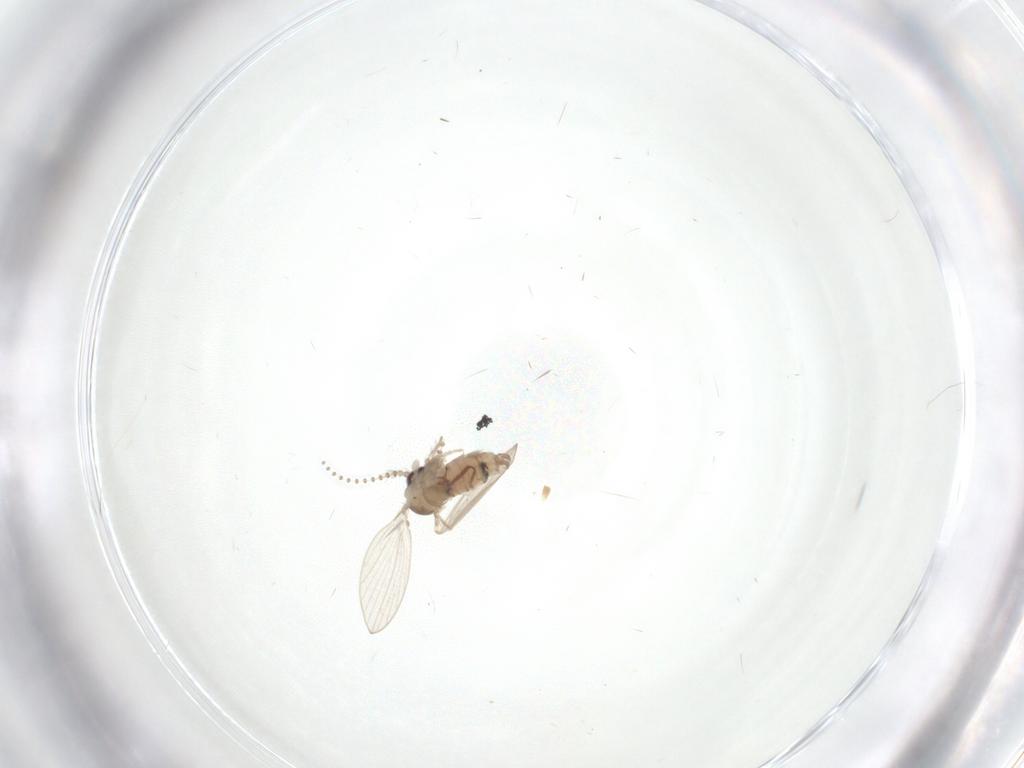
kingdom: Animalia
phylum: Arthropoda
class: Insecta
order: Diptera
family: Psychodidae
